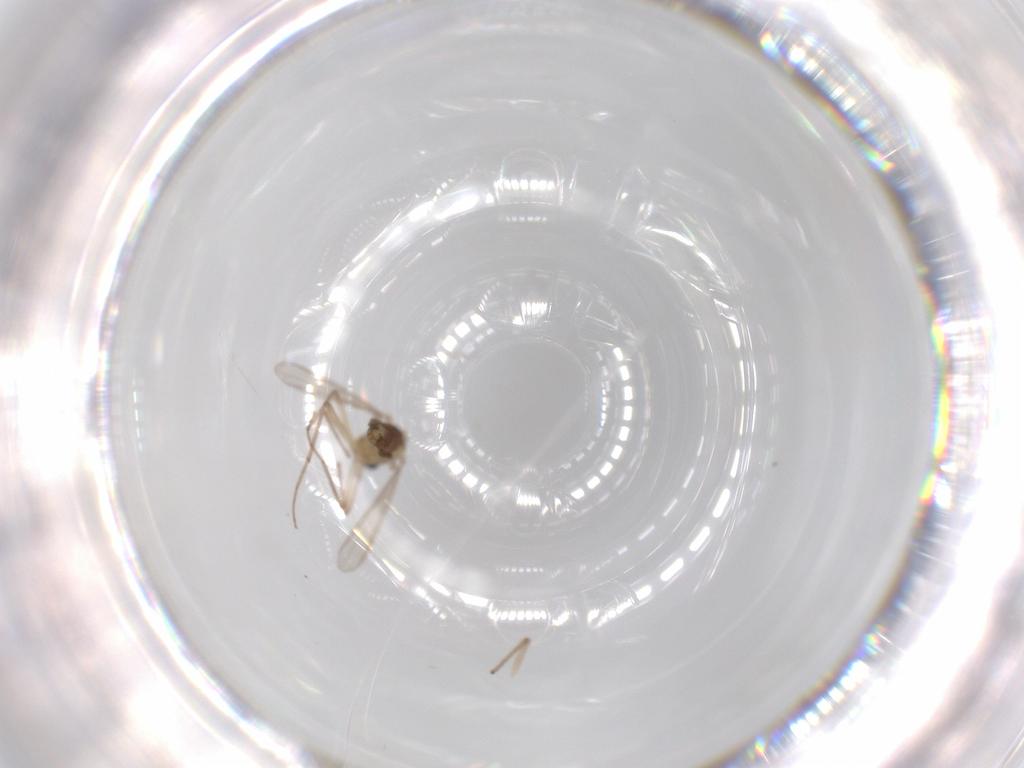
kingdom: Animalia
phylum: Arthropoda
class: Insecta
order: Diptera
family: Chironomidae
